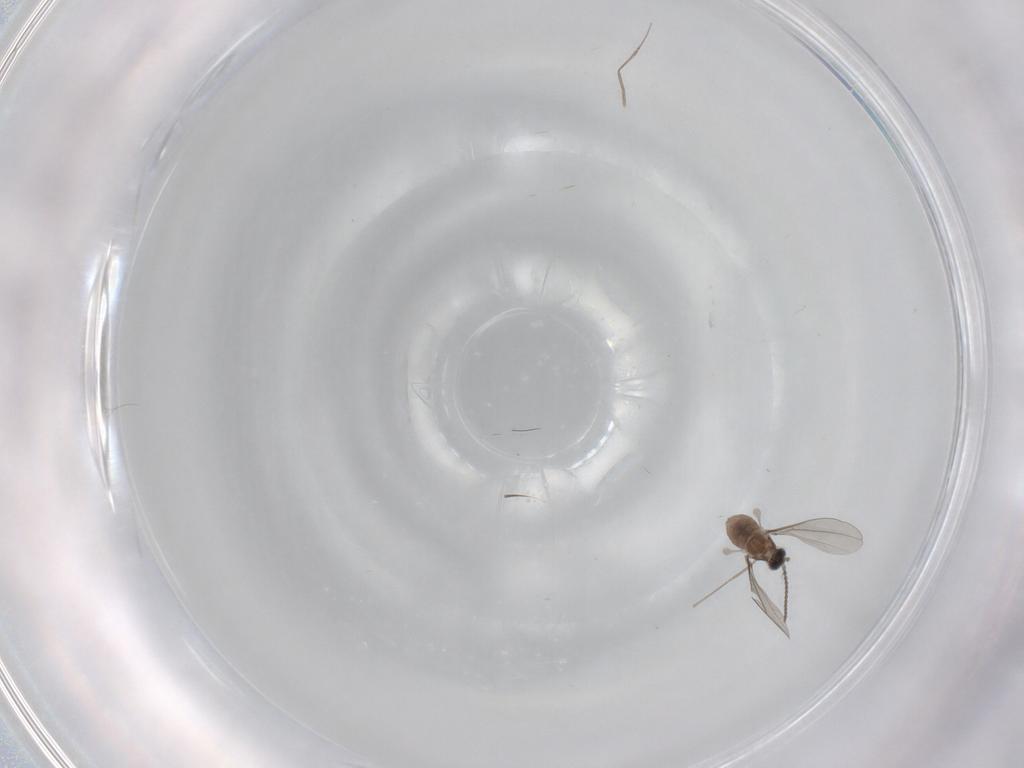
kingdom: Animalia
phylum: Arthropoda
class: Insecta
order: Diptera
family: Cecidomyiidae
